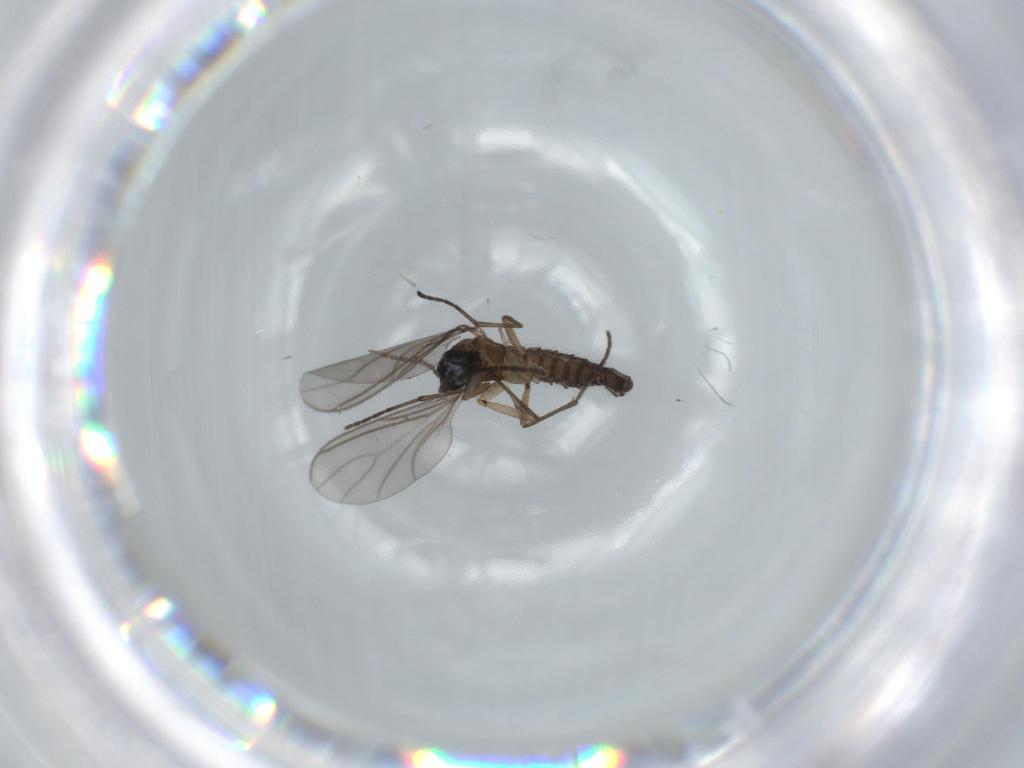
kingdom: Animalia
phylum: Arthropoda
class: Insecta
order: Diptera
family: Sciaridae
